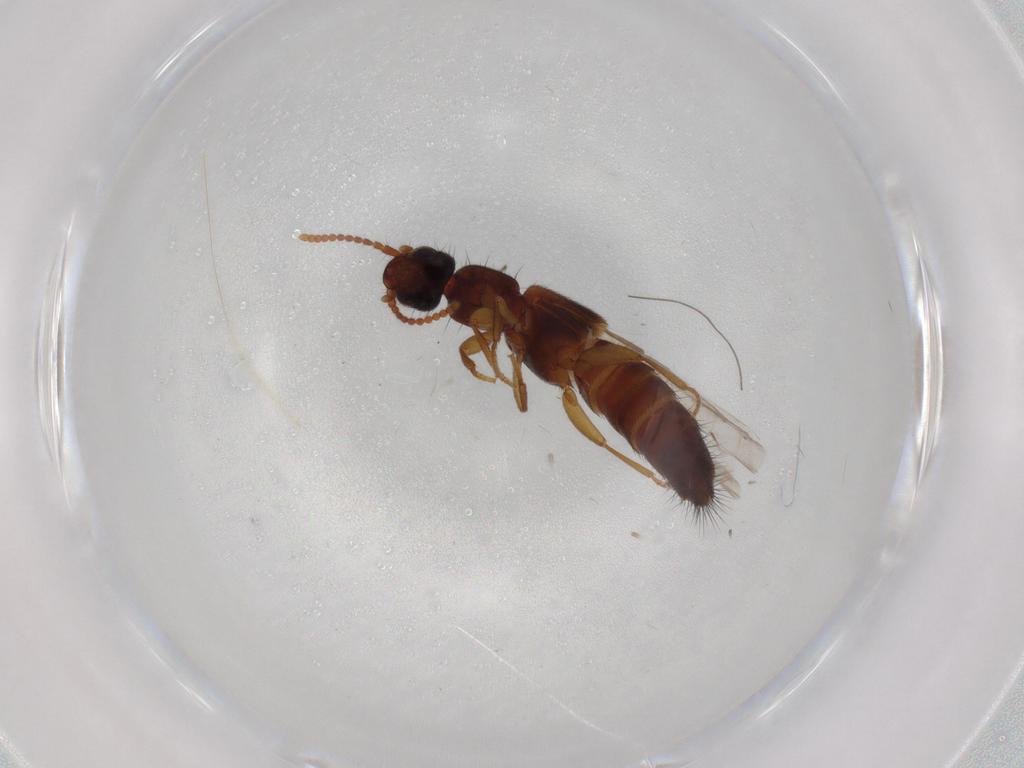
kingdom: Animalia
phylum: Arthropoda
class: Insecta
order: Coleoptera
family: Staphylinidae
